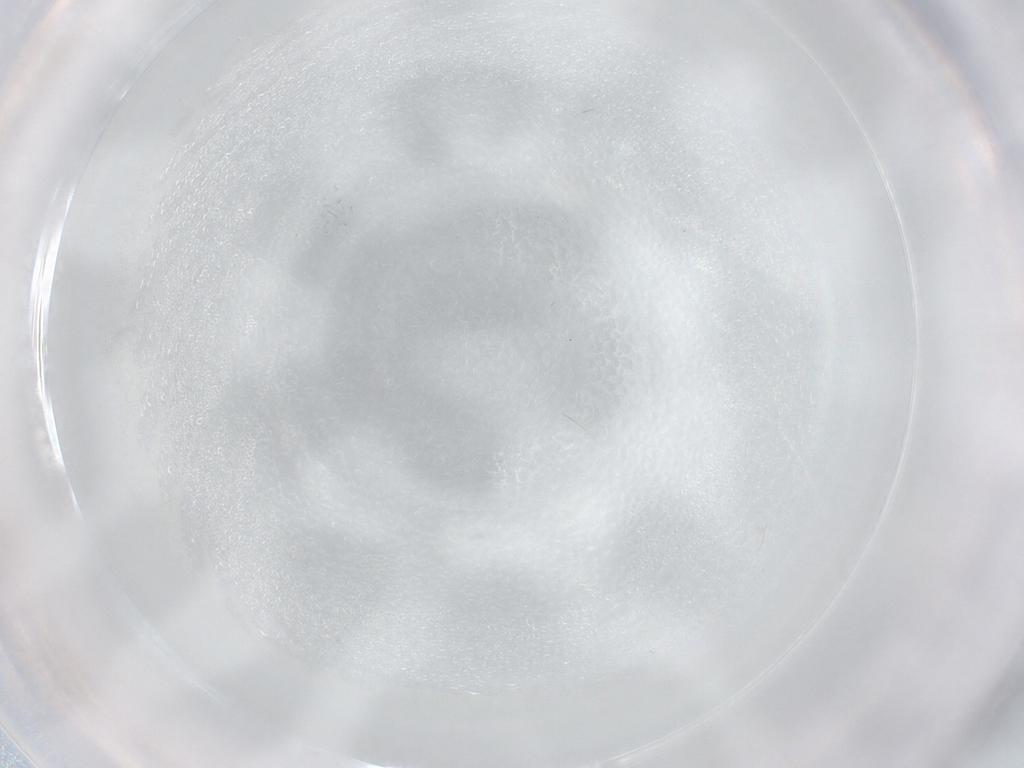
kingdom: Animalia
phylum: Arthropoda
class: Insecta
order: Hymenoptera
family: Aphelinidae
